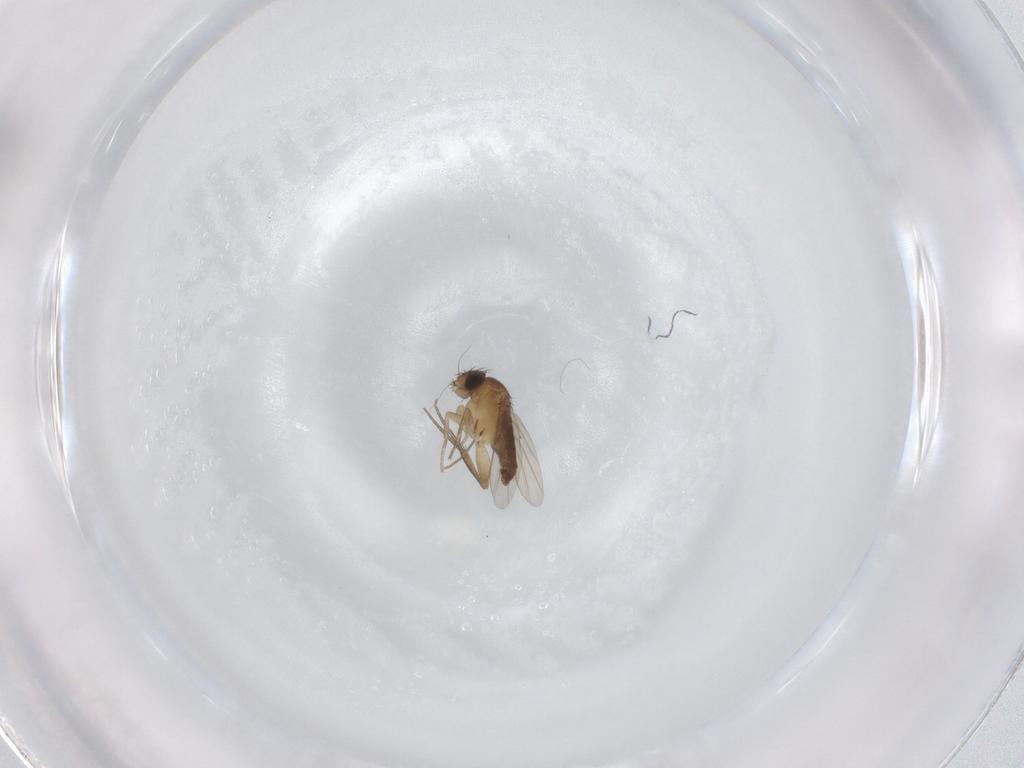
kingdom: Animalia
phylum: Arthropoda
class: Insecta
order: Diptera
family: Phoridae
